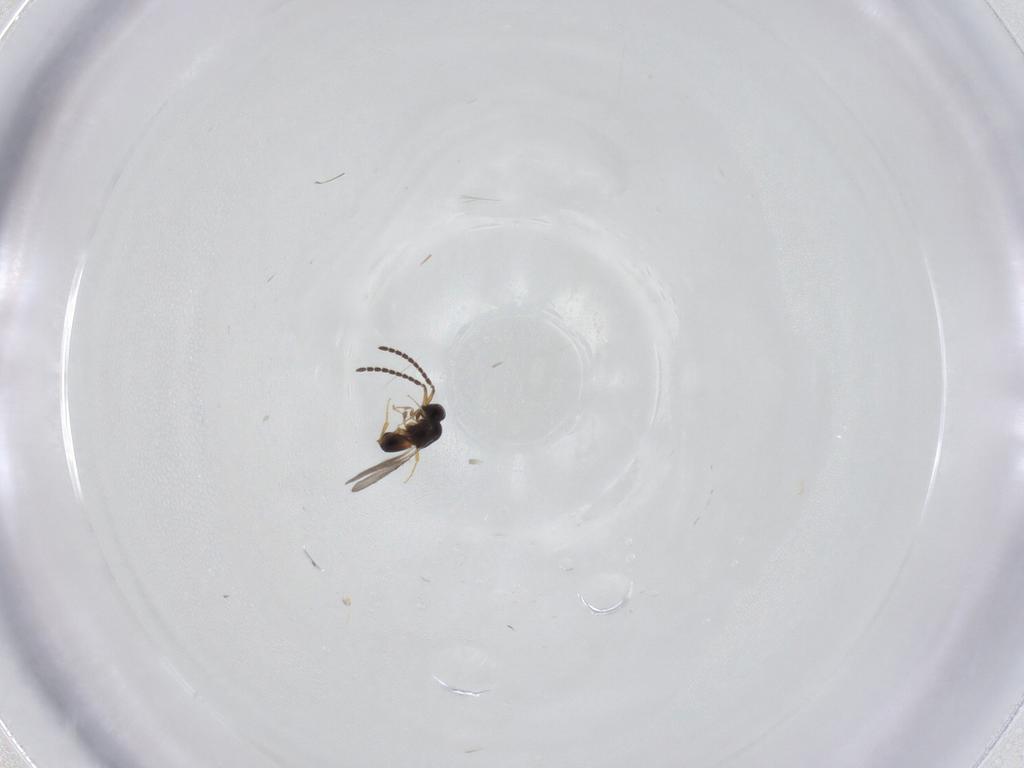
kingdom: Animalia
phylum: Arthropoda
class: Insecta
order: Hymenoptera
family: Ceraphronidae
